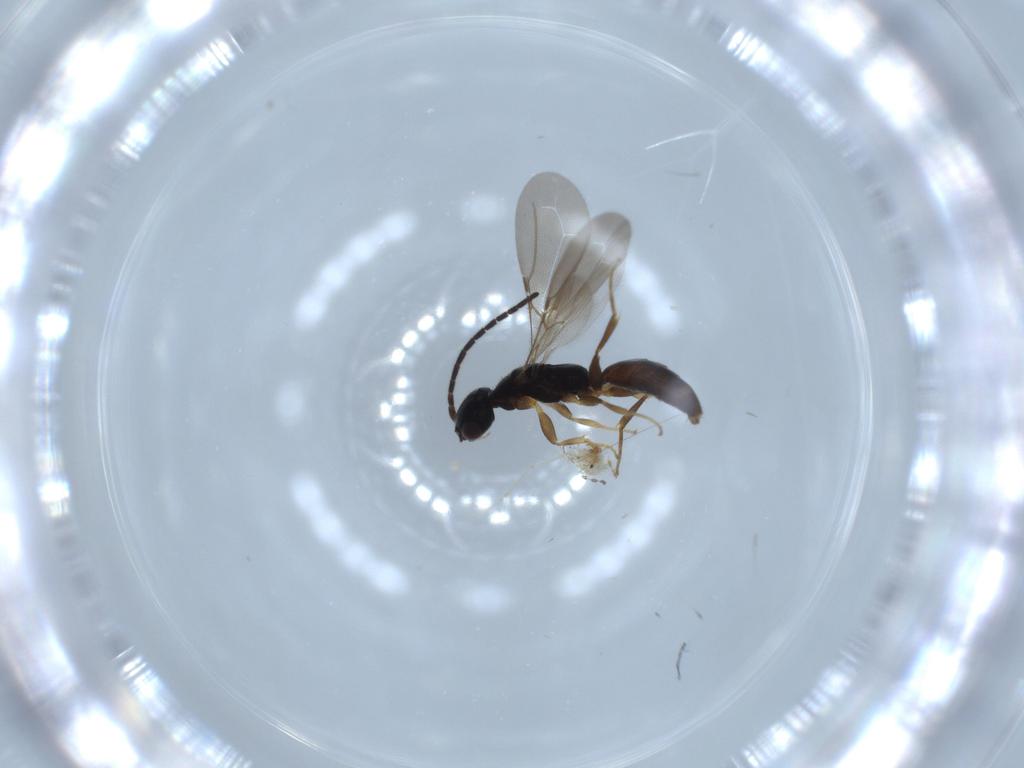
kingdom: Animalia
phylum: Arthropoda
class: Insecta
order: Hymenoptera
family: Formicidae
